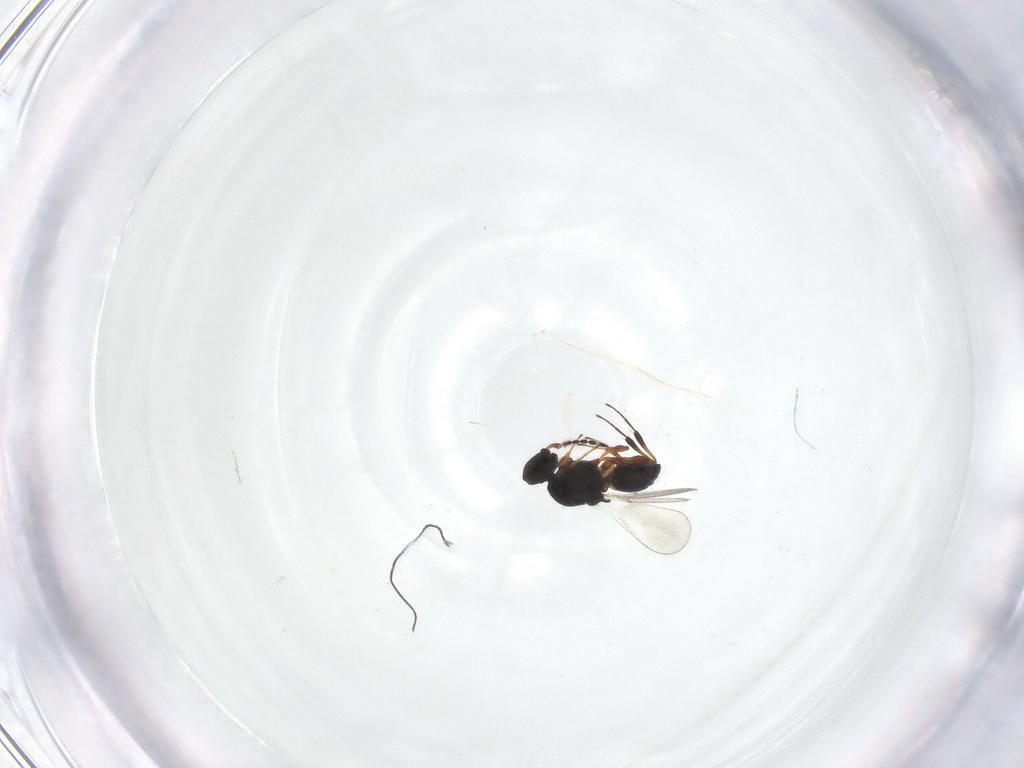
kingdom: Animalia
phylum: Arthropoda
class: Insecta
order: Hymenoptera
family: Platygastridae
